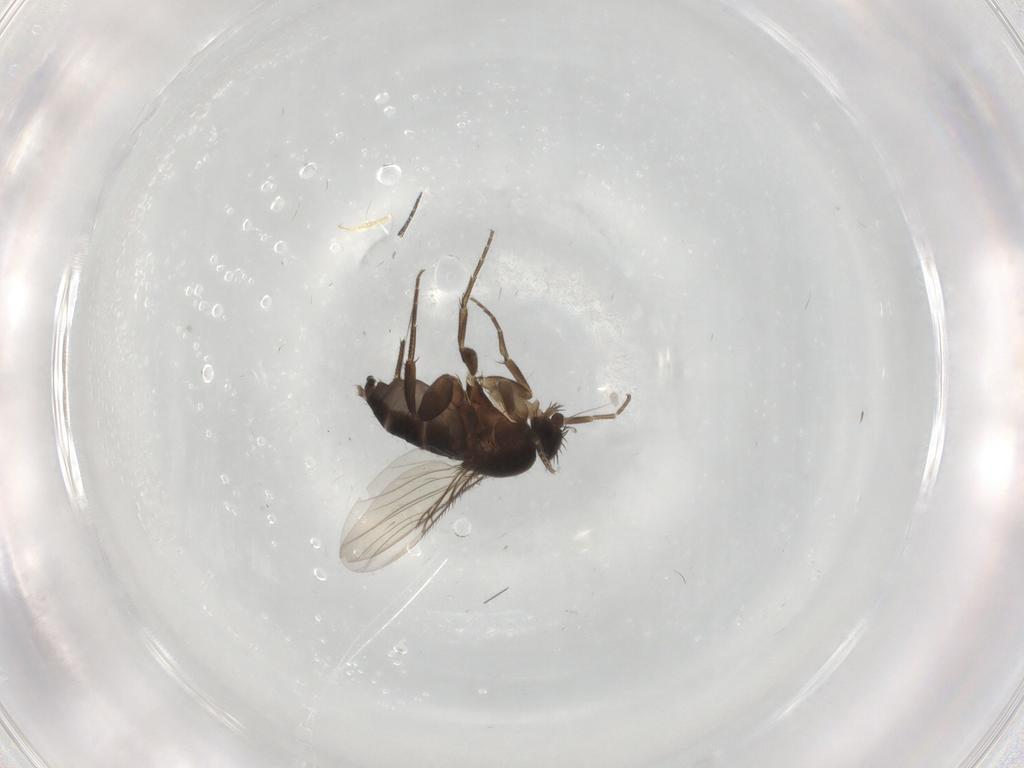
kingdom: Animalia
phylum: Arthropoda
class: Insecta
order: Diptera
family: Phoridae
